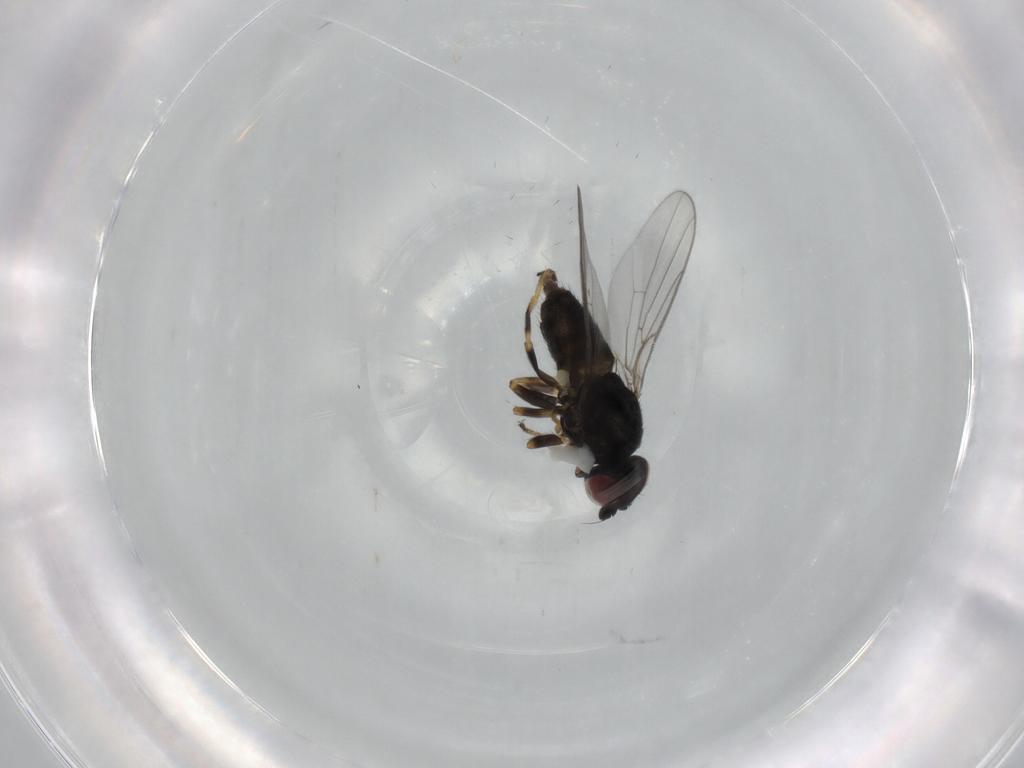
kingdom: Animalia
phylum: Arthropoda
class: Insecta
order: Diptera
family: Chloropidae
